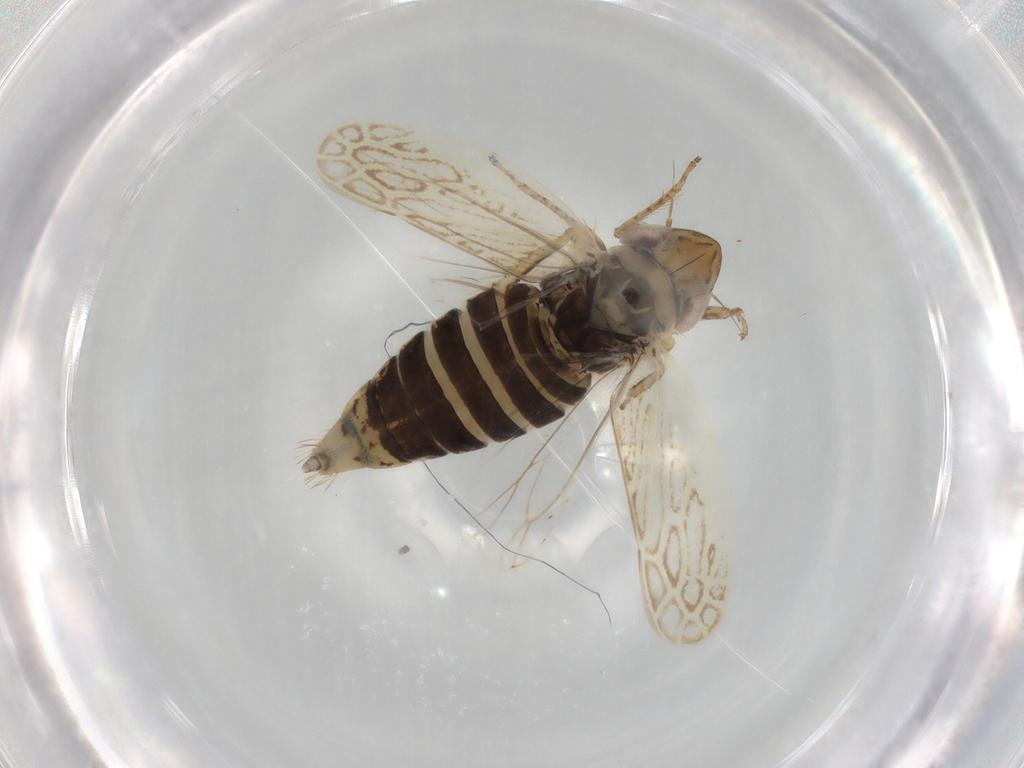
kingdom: Animalia
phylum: Arthropoda
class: Insecta
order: Hemiptera
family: Cicadellidae
